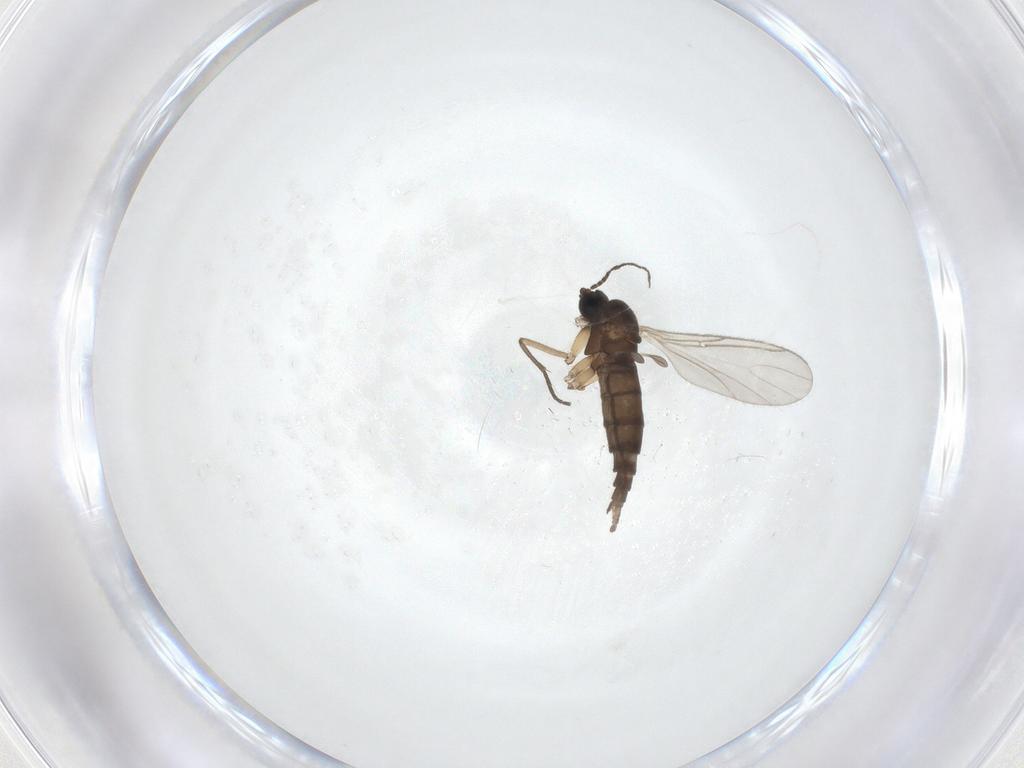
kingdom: Animalia
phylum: Arthropoda
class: Insecta
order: Diptera
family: Sciaridae
